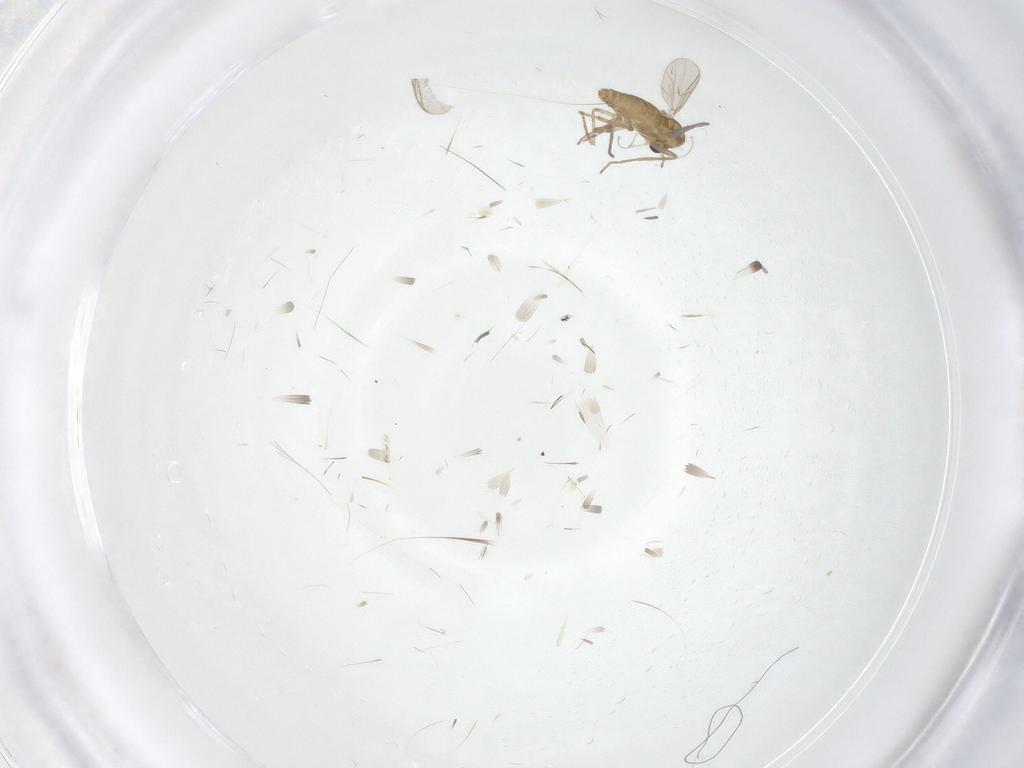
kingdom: Animalia
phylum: Arthropoda
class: Insecta
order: Diptera
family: Chironomidae
